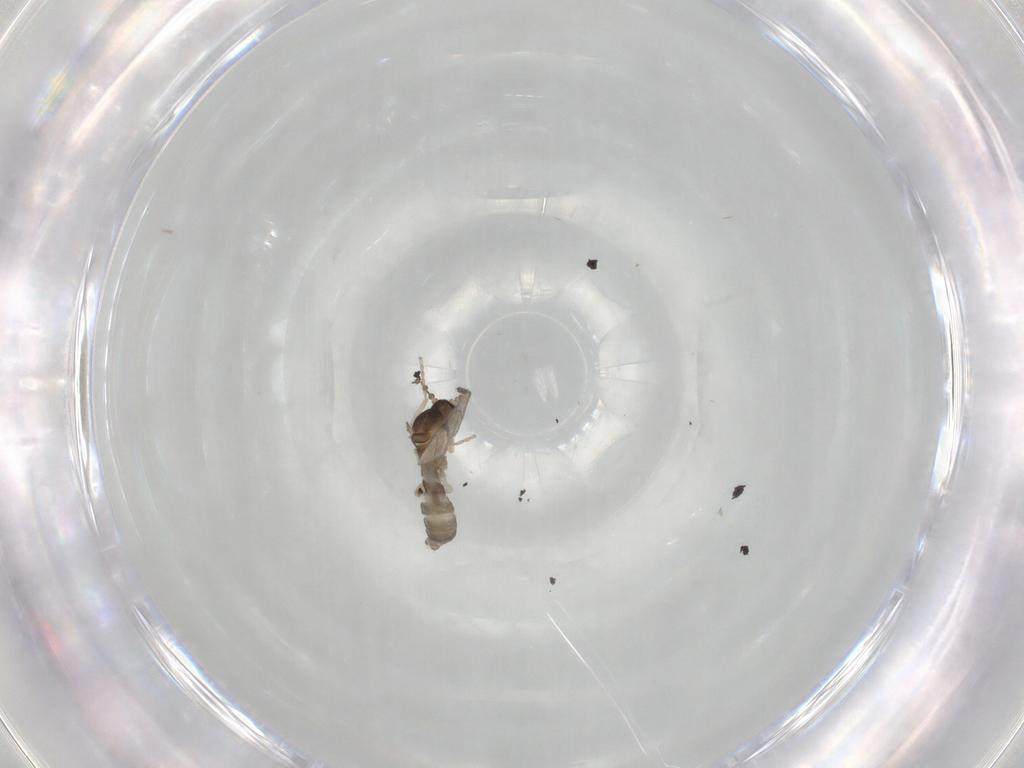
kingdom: Animalia
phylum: Arthropoda
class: Insecta
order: Diptera
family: Cecidomyiidae
